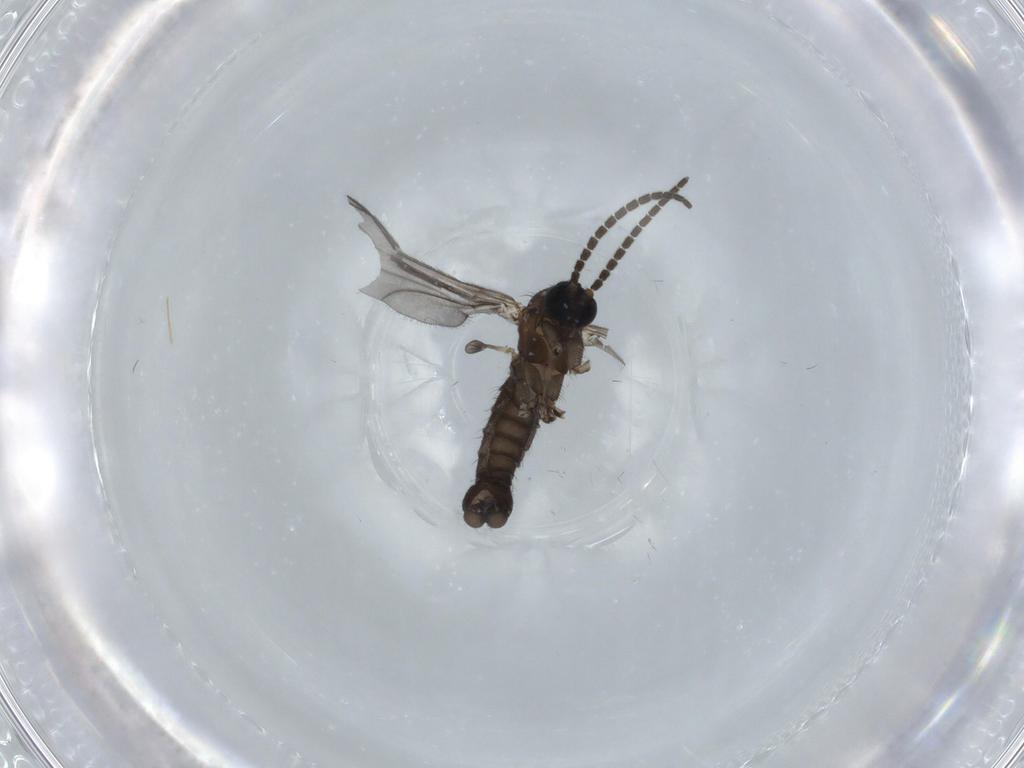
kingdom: Animalia
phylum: Arthropoda
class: Insecta
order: Diptera
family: Sciaridae
